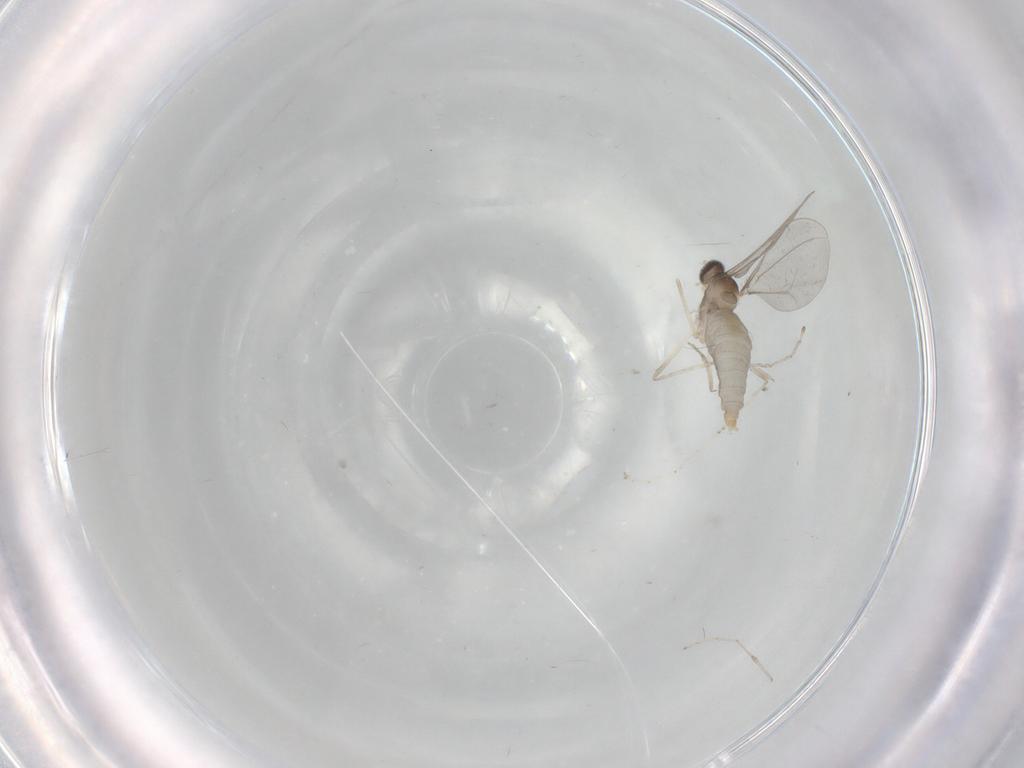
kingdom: Animalia
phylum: Arthropoda
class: Insecta
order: Diptera
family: Cecidomyiidae
